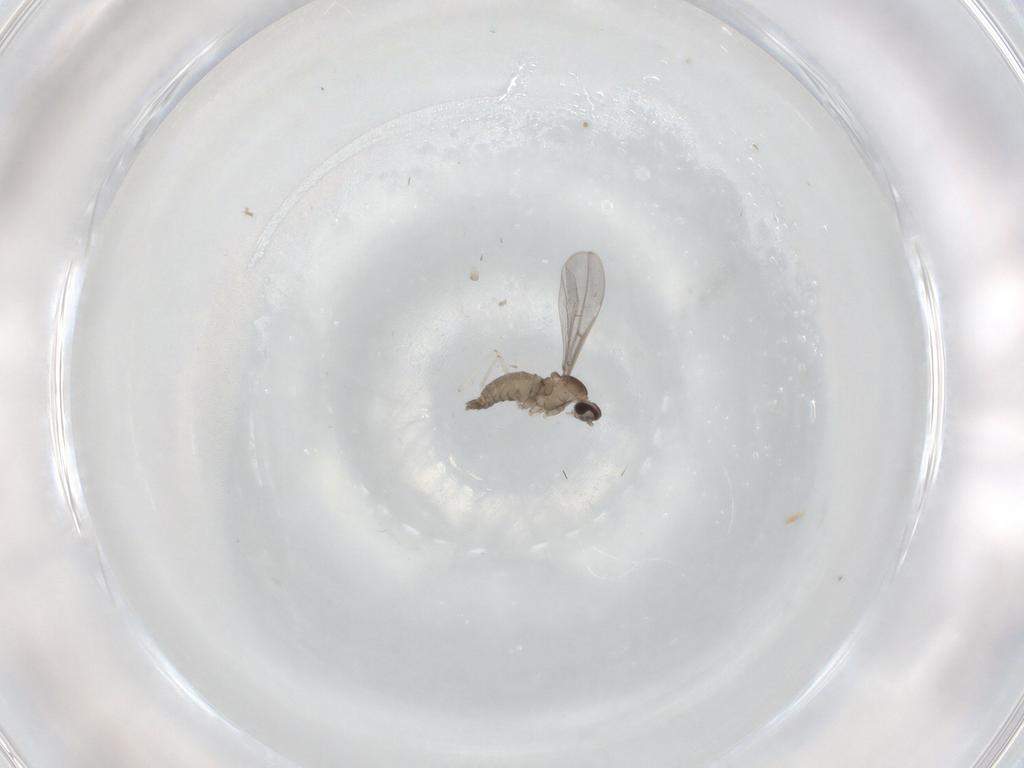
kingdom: Animalia
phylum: Arthropoda
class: Insecta
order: Diptera
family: Cecidomyiidae
